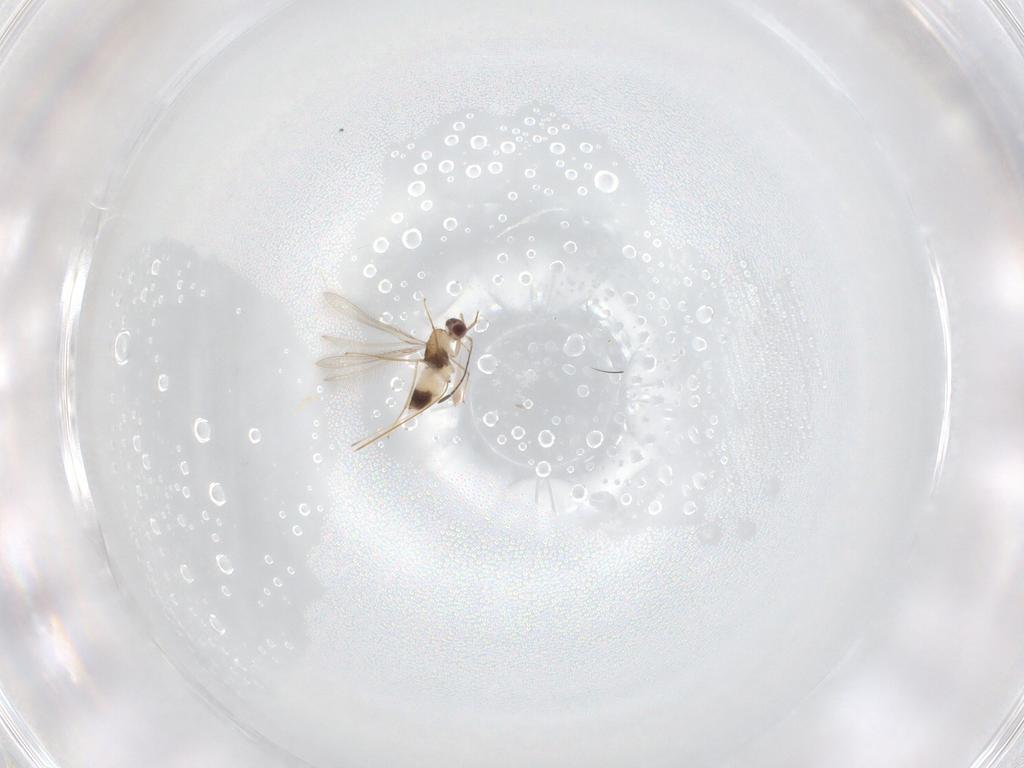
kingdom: Animalia
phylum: Arthropoda
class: Insecta
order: Hymenoptera
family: Mymaridae
